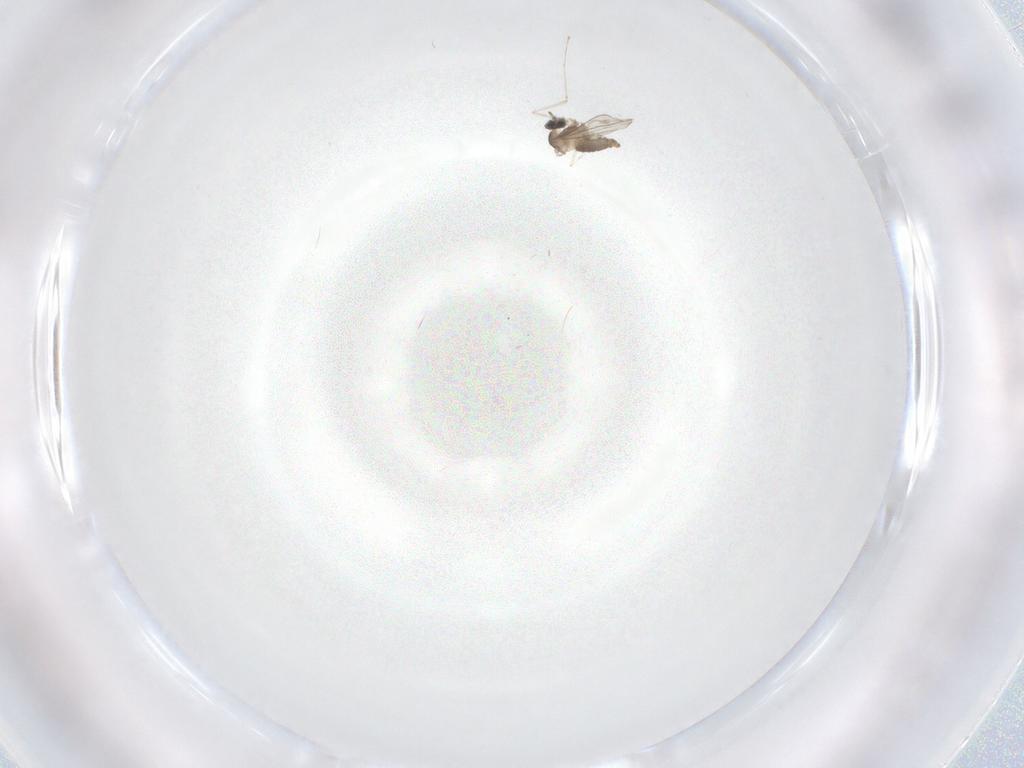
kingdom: Animalia
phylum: Arthropoda
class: Insecta
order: Diptera
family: Cecidomyiidae
